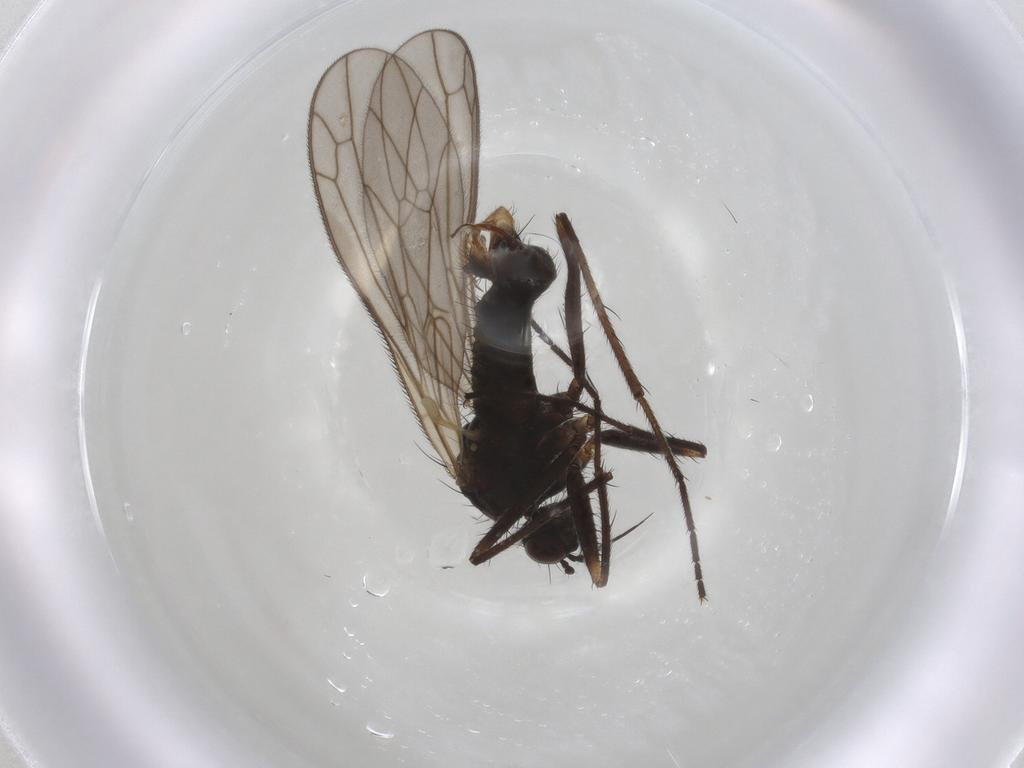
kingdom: Animalia
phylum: Arthropoda
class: Insecta
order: Diptera
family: Empididae
